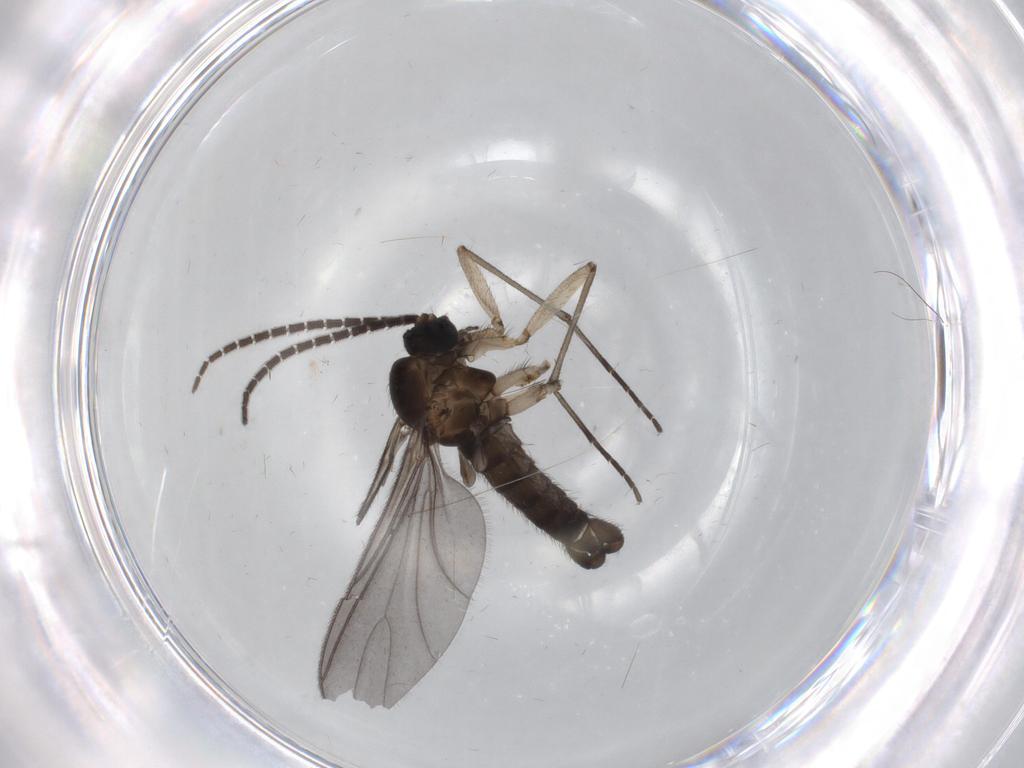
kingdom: Animalia
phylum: Arthropoda
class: Insecta
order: Diptera
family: Sciaridae
